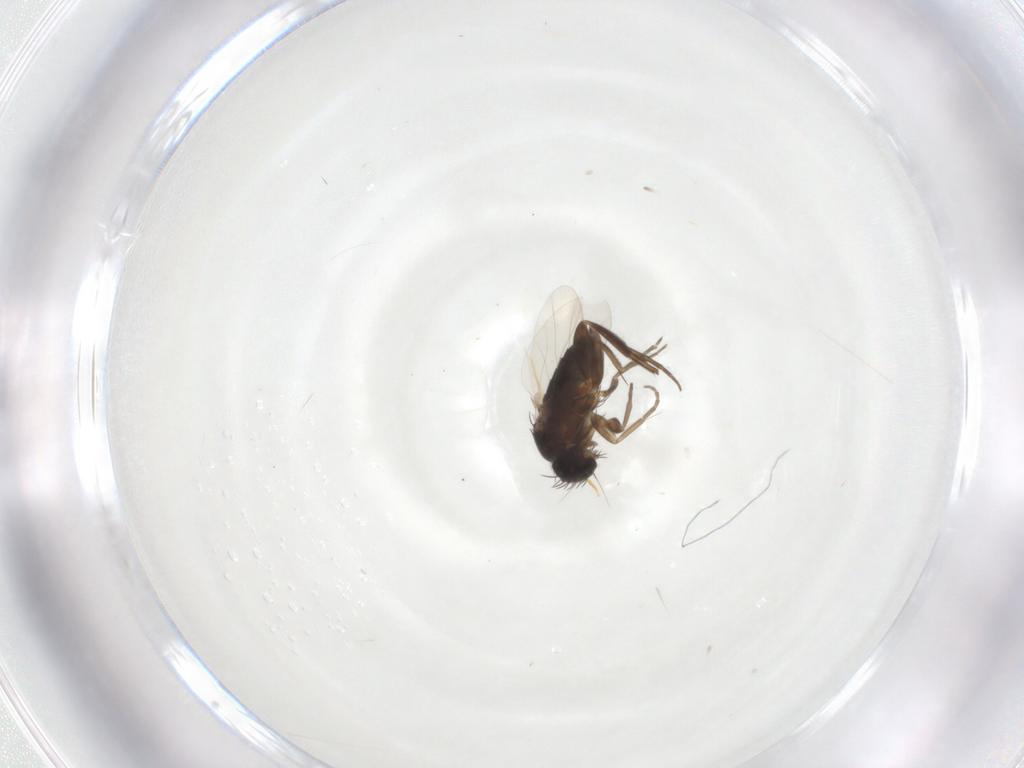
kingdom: Animalia
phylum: Arthropoda
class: Insecta
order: Diptera
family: Phoridae
